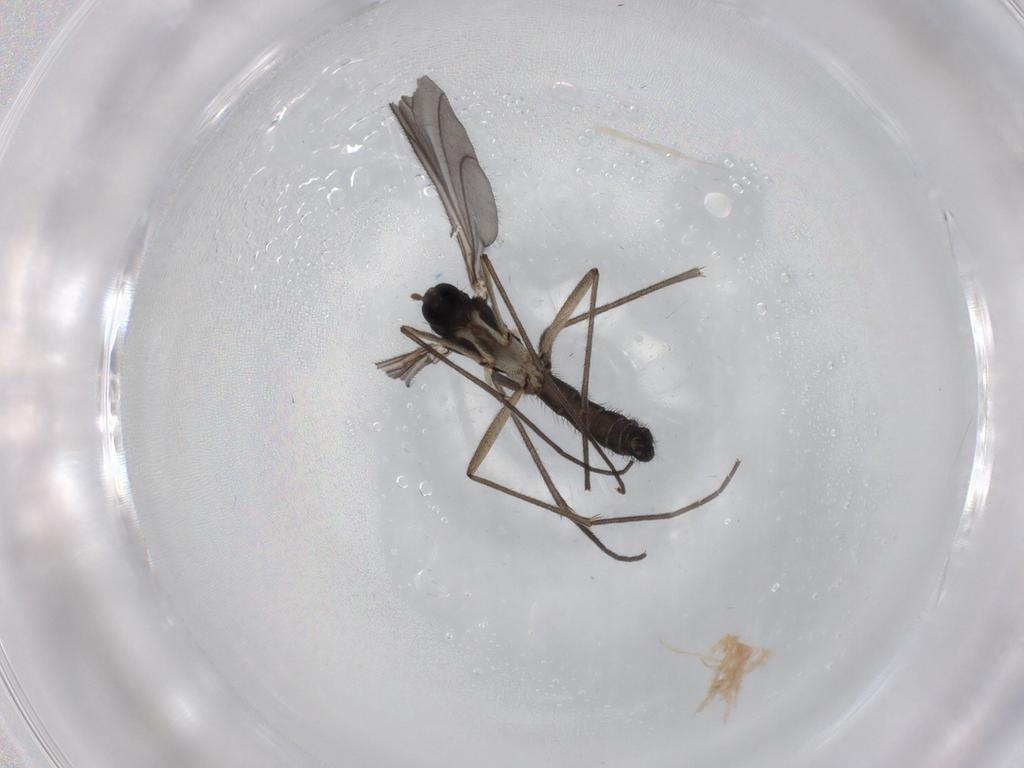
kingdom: Animalia
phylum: Arthropoda
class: Insecta
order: Diptera
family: Sciaridae
